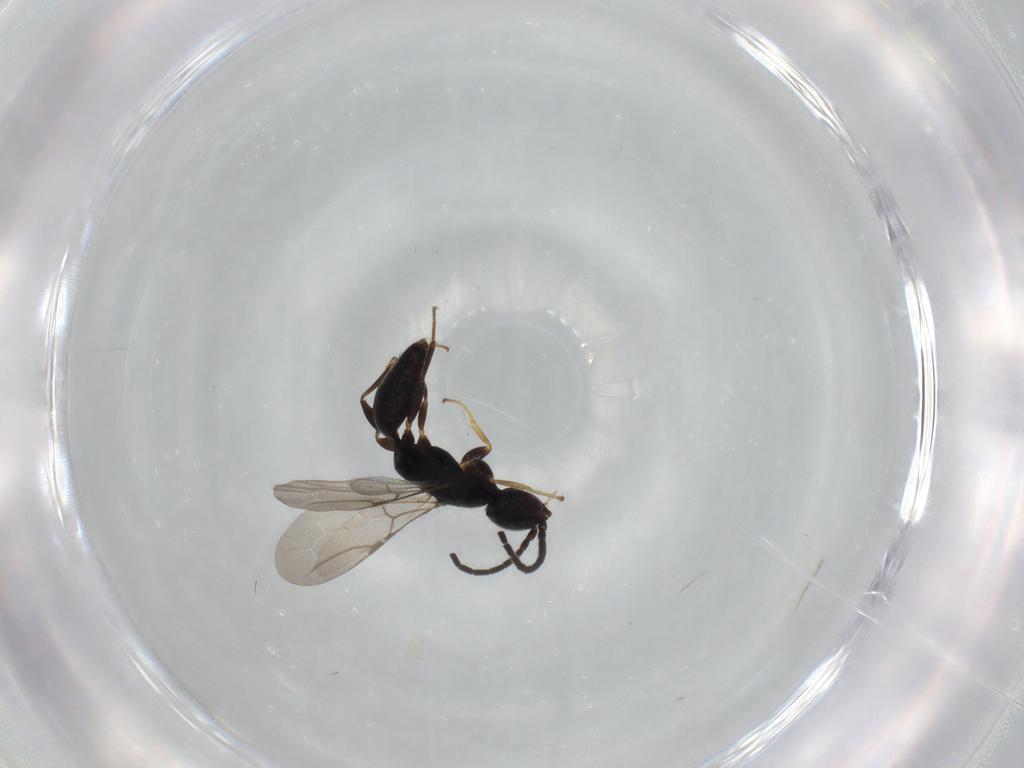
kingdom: Animalia
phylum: Arthropoda
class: Insecta
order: Hymenoptera
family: Bethylidae
